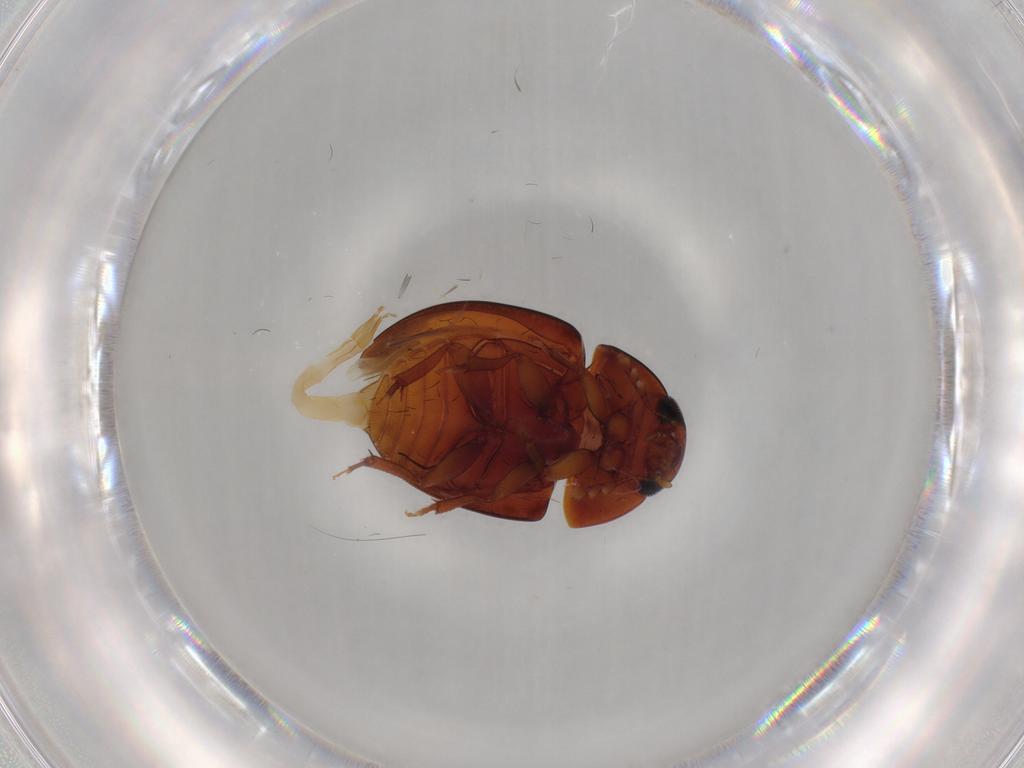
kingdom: Animalia
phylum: Arthropoda
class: Insecta
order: Coleoptera
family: Phalacridae
